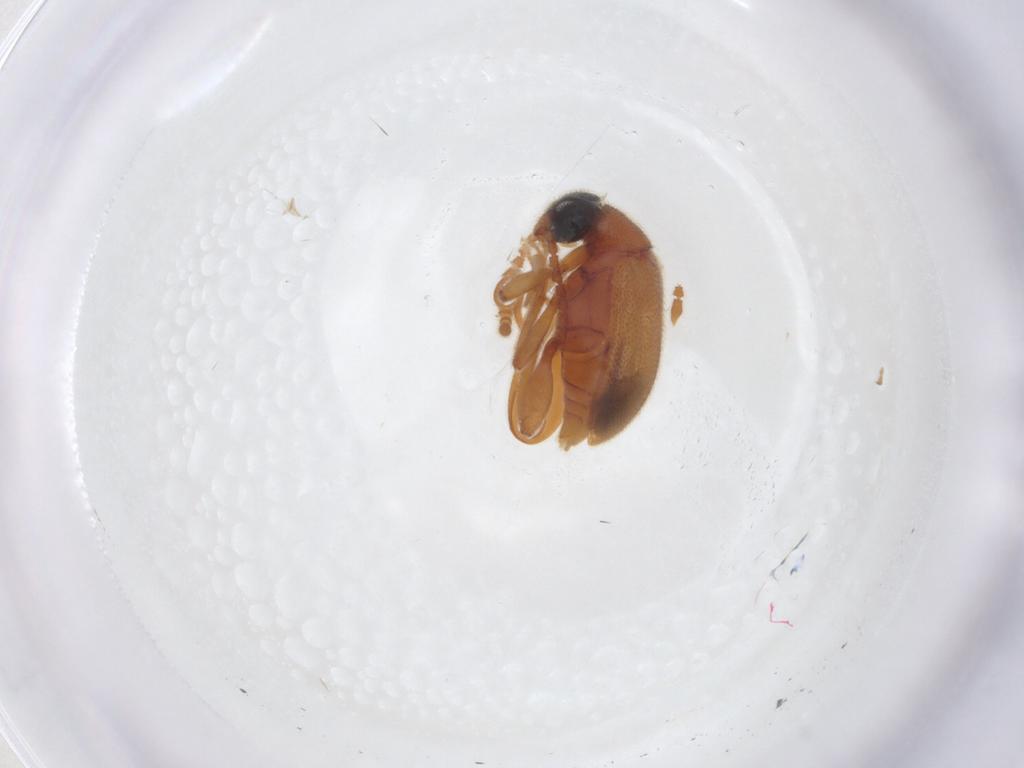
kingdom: Animalia
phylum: Arthropoda
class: Insecta
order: Coleoptera
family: Aderidae
